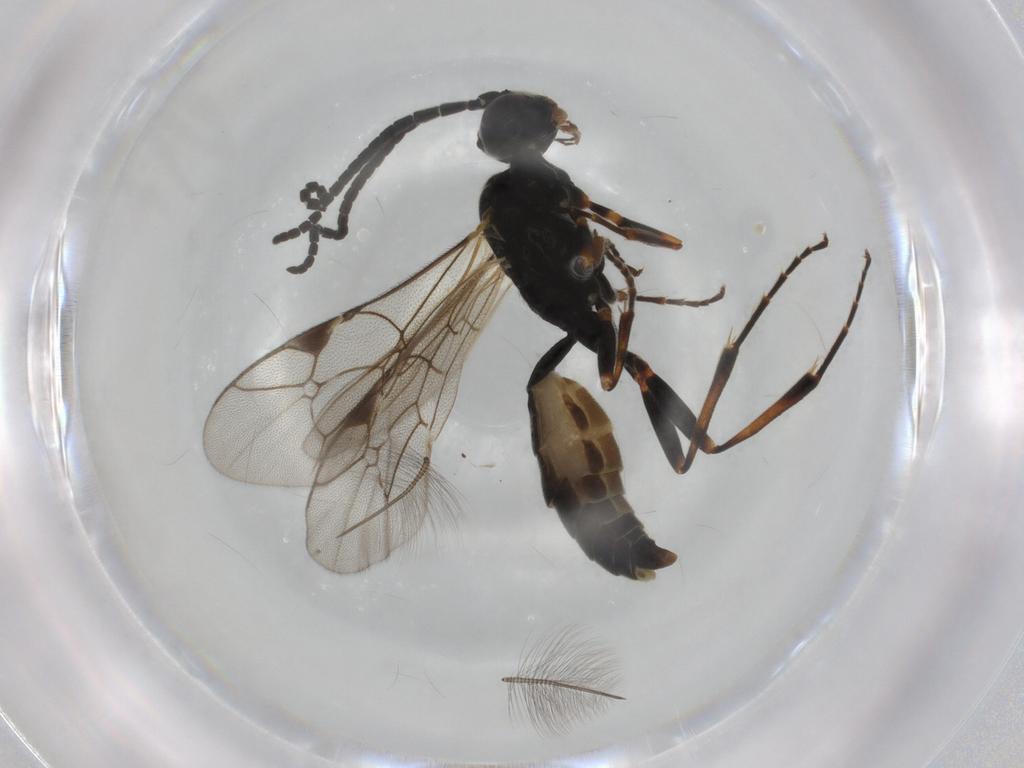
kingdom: Animalia
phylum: Arthropoda
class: Insecta
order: Hymenoptera
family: Ichneumonidae
